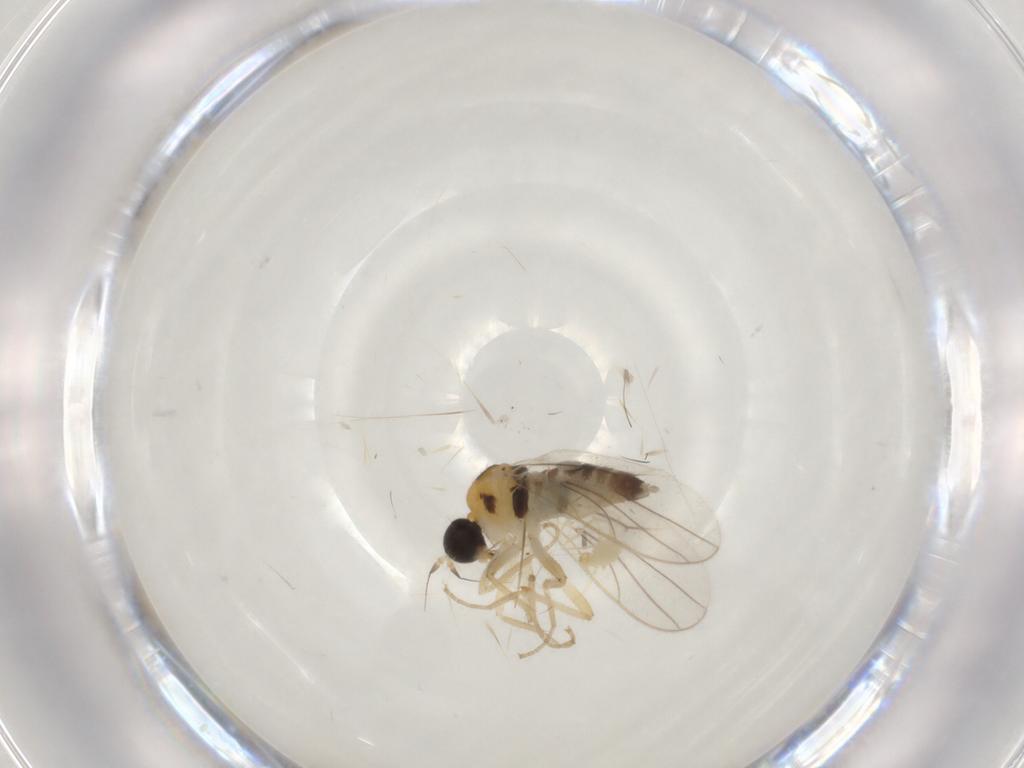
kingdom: Animalia
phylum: Arthropoda
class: Insecta
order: Diptera
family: Hybotidae
